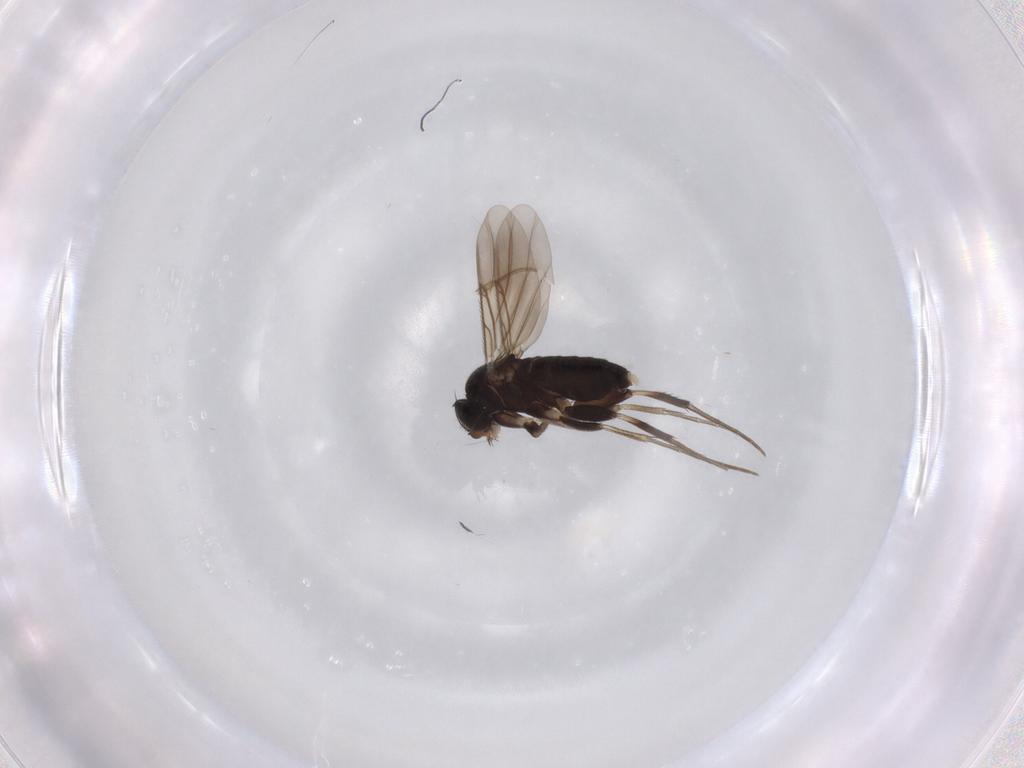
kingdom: Animalia
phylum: Arthropoda
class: Insecta
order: Diptera
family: Phoridae
